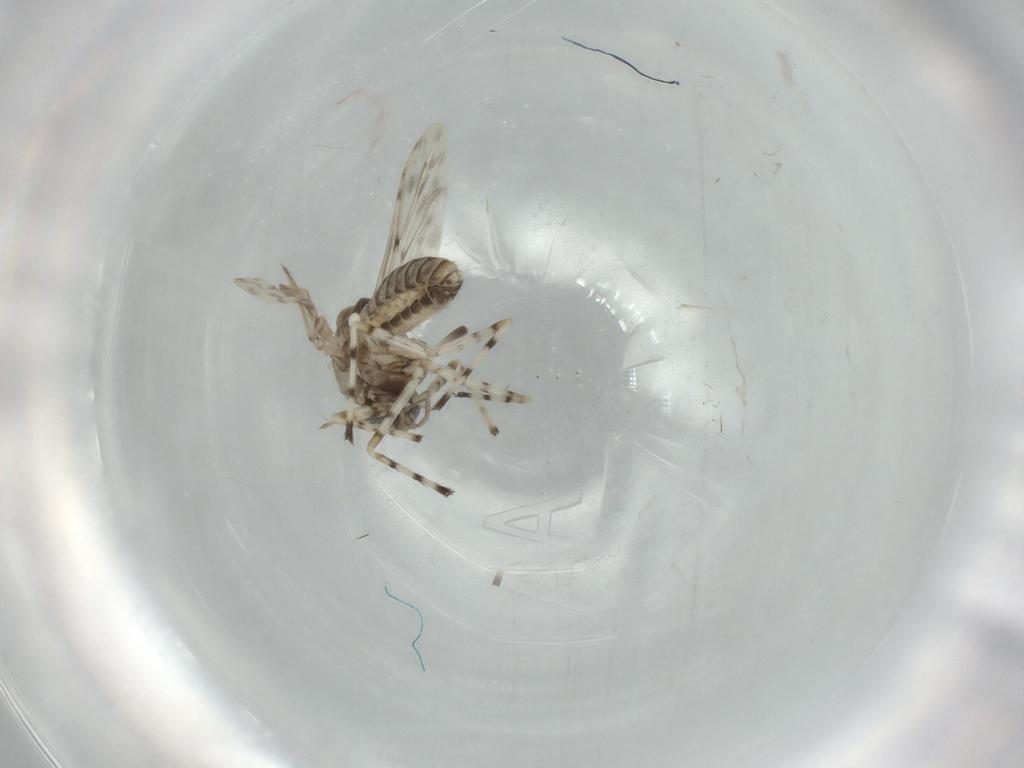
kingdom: Animalia
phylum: Arthropoda
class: Insecta
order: Diptera
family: Chironomidae
